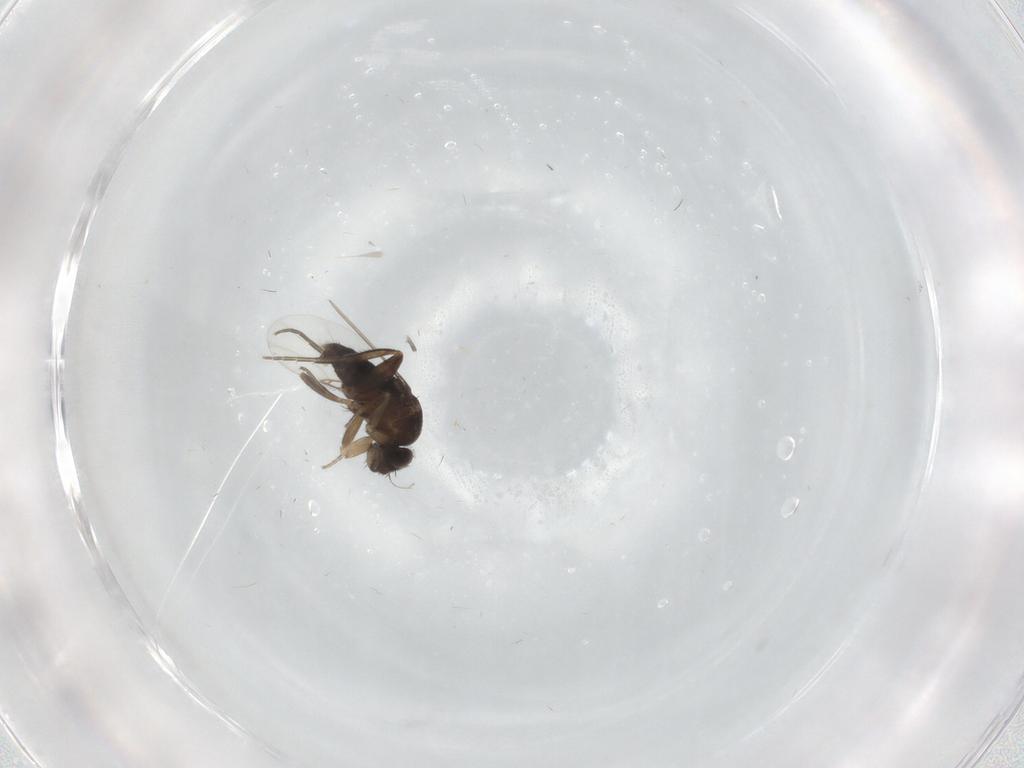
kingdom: Animalia
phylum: Arthropoda
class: Insecta
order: Diptera
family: Phoridae
